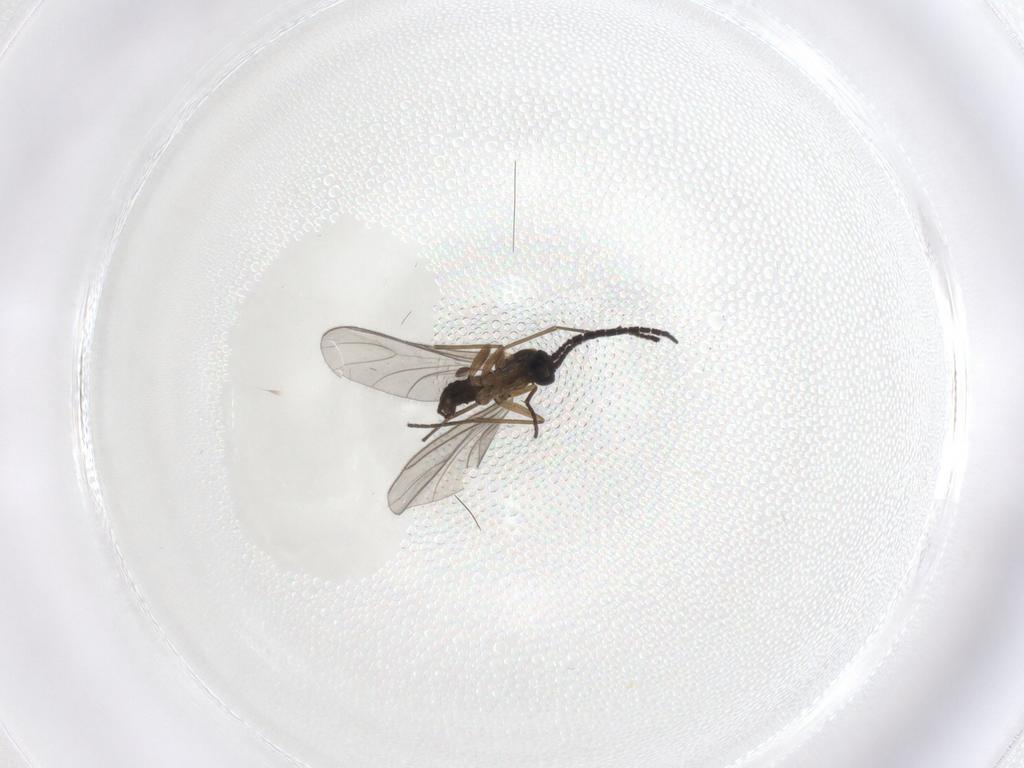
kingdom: Animalia
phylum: Arthropoda
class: Insecta
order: Diptera
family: Sciaridae
